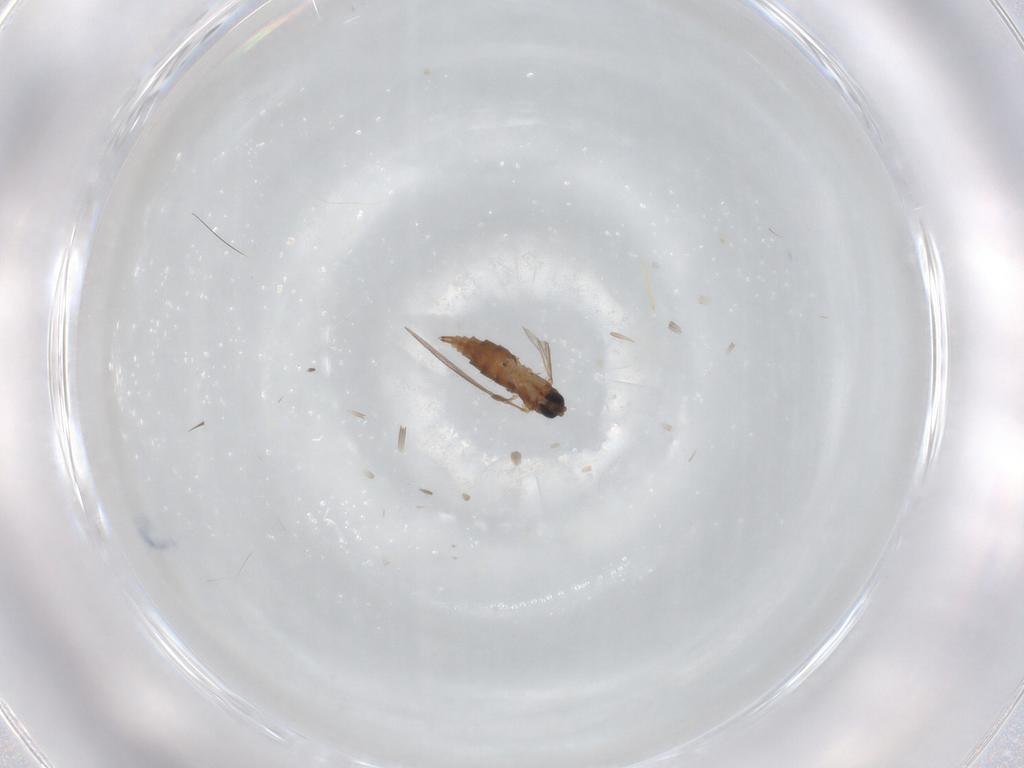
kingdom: Animalia
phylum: Arthropoda
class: Insecta
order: Diptera
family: Sciaridae
